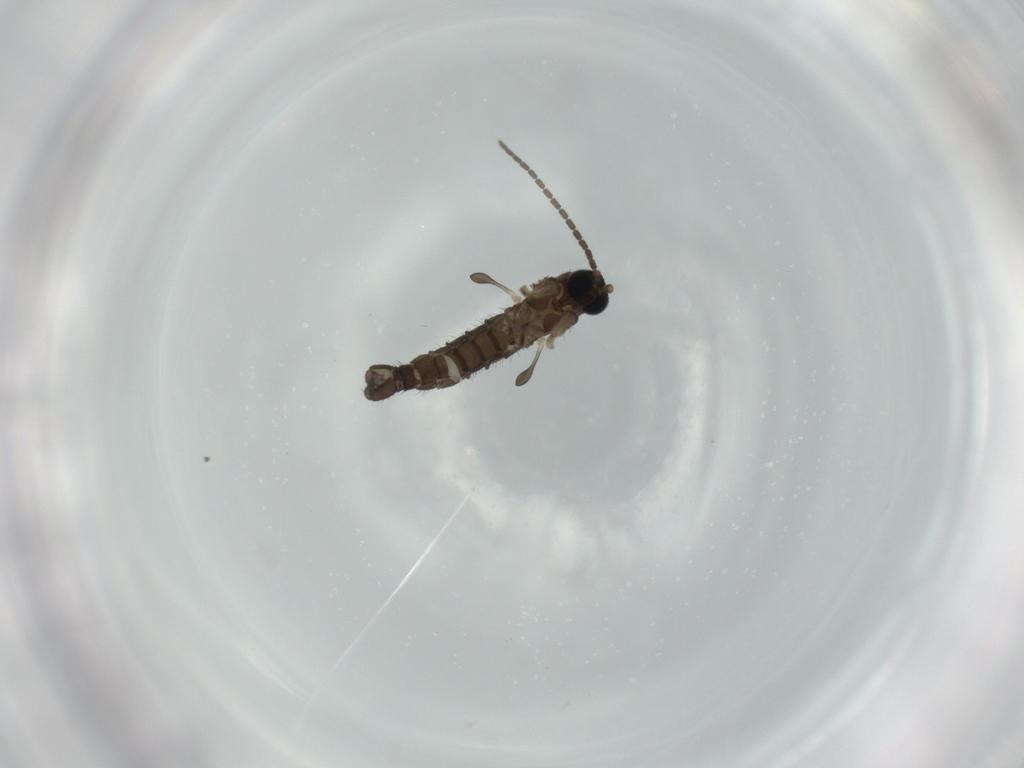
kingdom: Animalia
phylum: Arthropoda
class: Insecta
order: Diptera
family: Sciaridae
